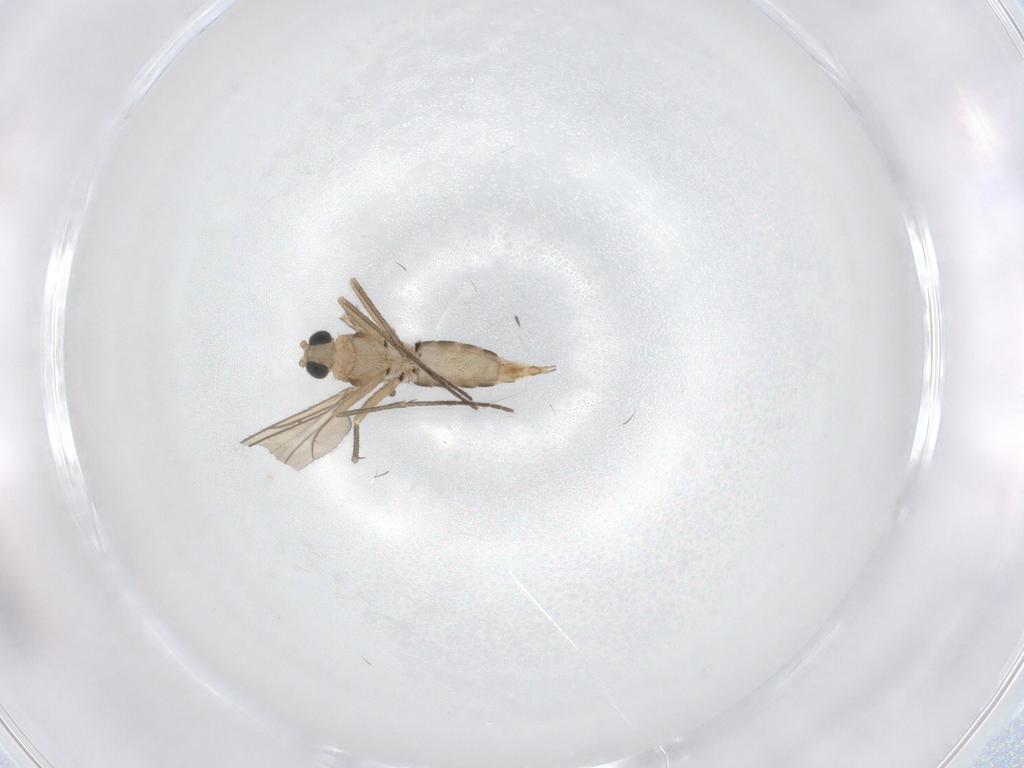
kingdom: Animalia
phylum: Arthropoda
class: Insecta
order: Diptera
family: Sciaridae
